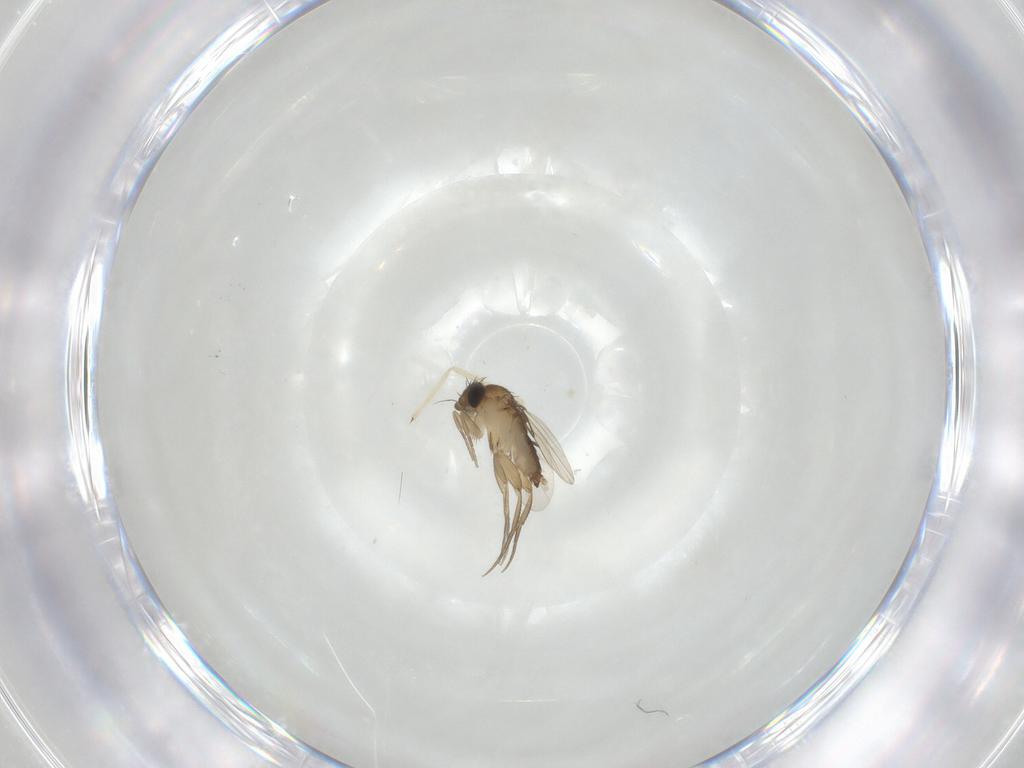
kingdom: Animalia
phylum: Arthropoda
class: Insecta
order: Diptera
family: Phoridae
